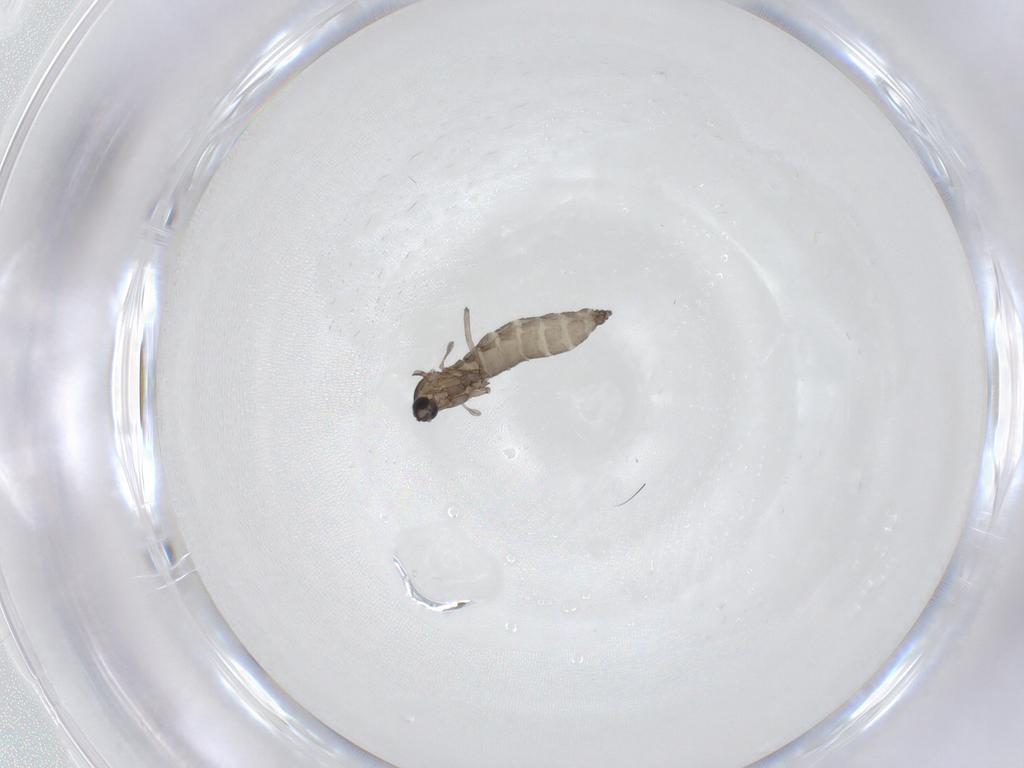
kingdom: Animalia
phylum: Arthropoda
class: Insecta
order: Diptera
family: Cecidomyiidae
